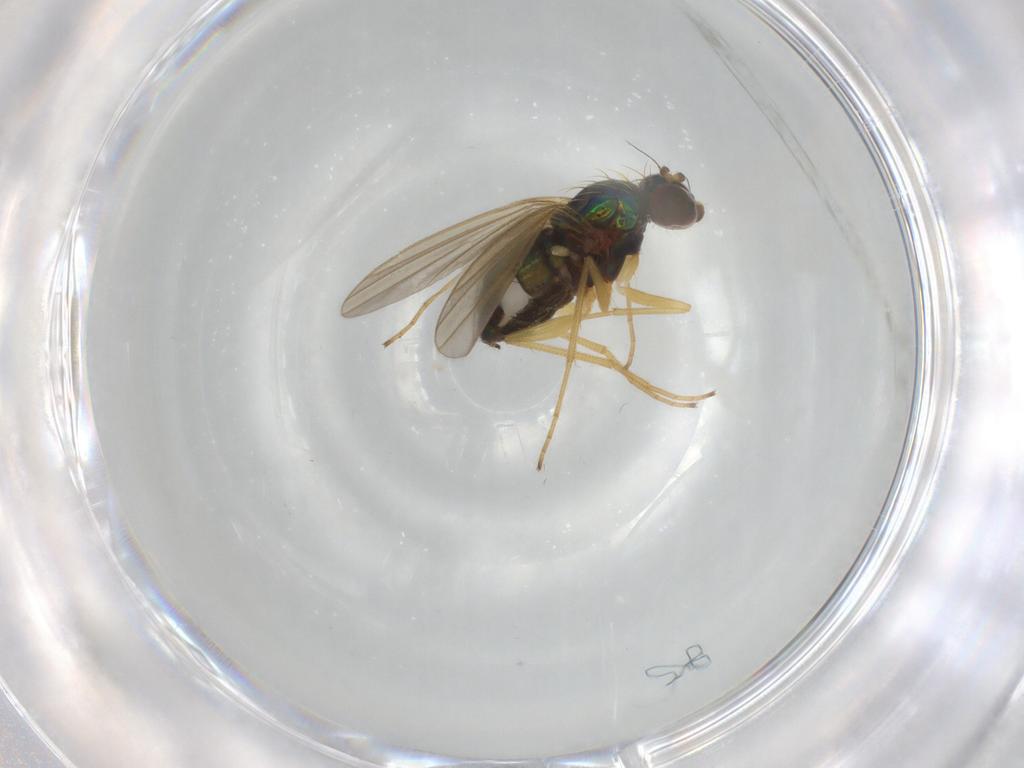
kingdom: Animalia
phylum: Arthropoda
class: Insecta
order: Diptera
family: Dolichopodidae
